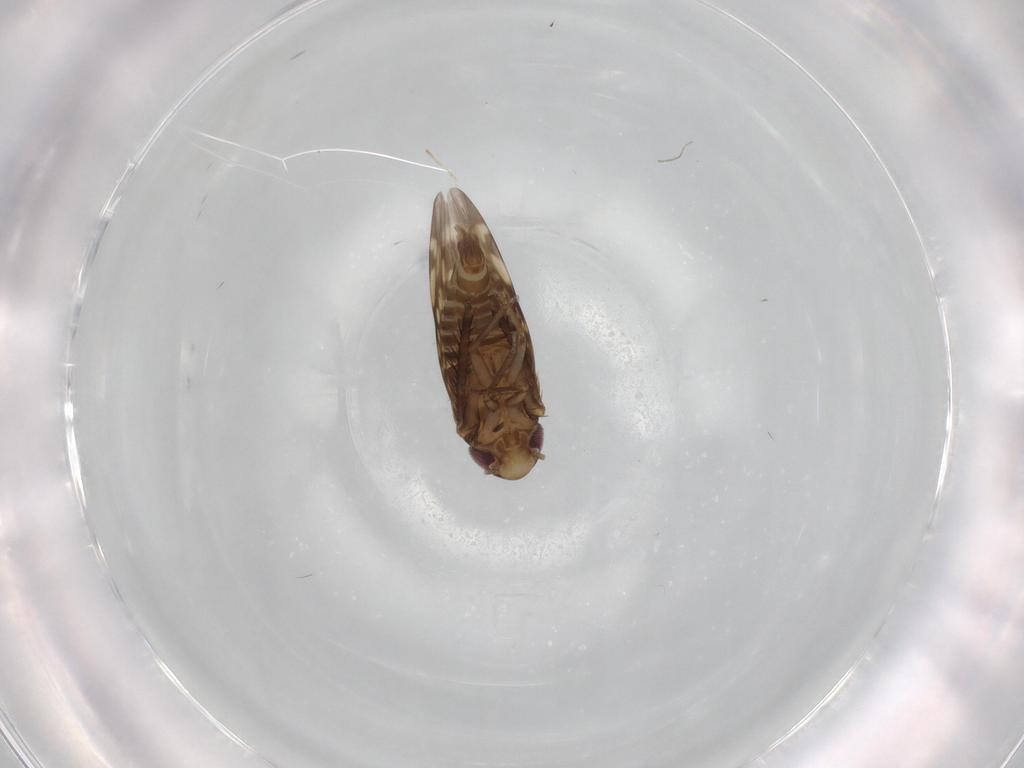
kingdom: Animalia
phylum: Arthropoda
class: Insecta
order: Hemiptera
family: Cicadellidae
